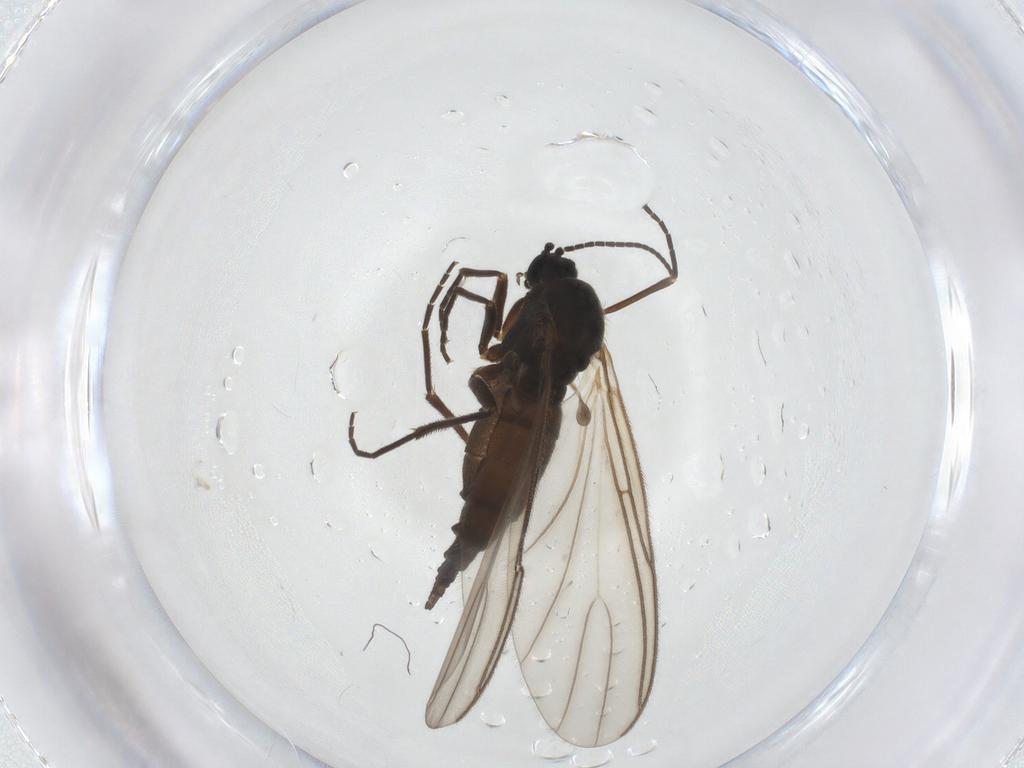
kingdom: Animalia
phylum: Arthropoda
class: Insecta
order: Diptera
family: Sciaridae
